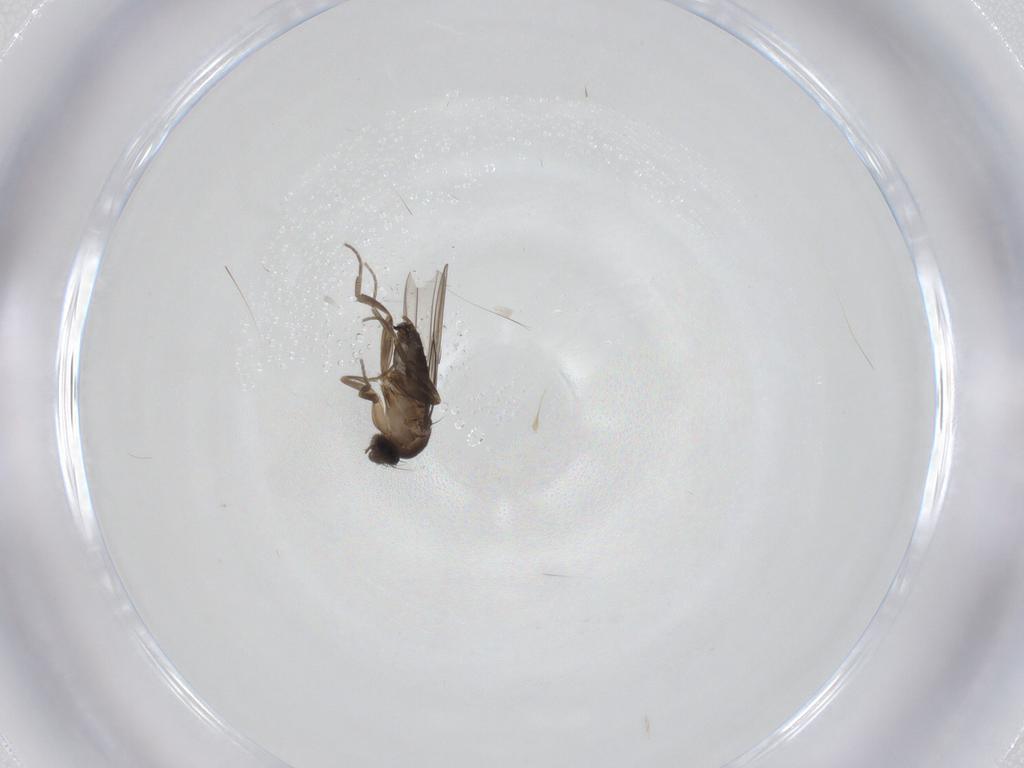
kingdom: Animalia
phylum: Arthropoda
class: Insecta
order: Diptera
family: Phoridae
